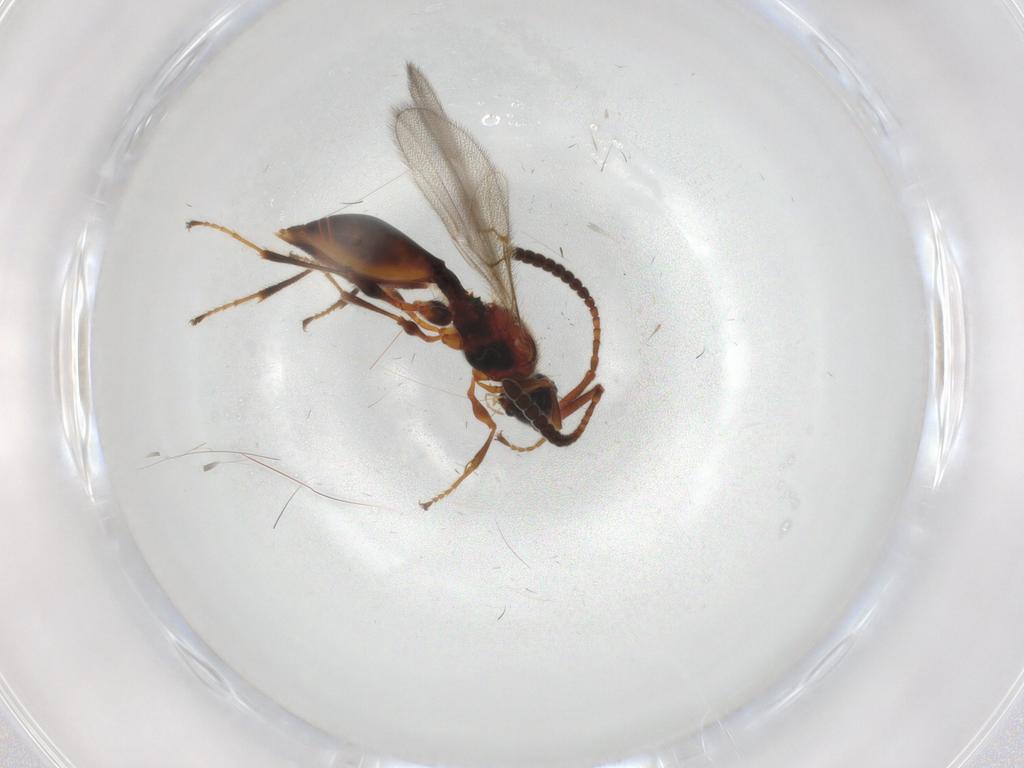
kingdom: Animalia
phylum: Arthropoda
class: Insecta
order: Hymenoptera
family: Diapriidae
